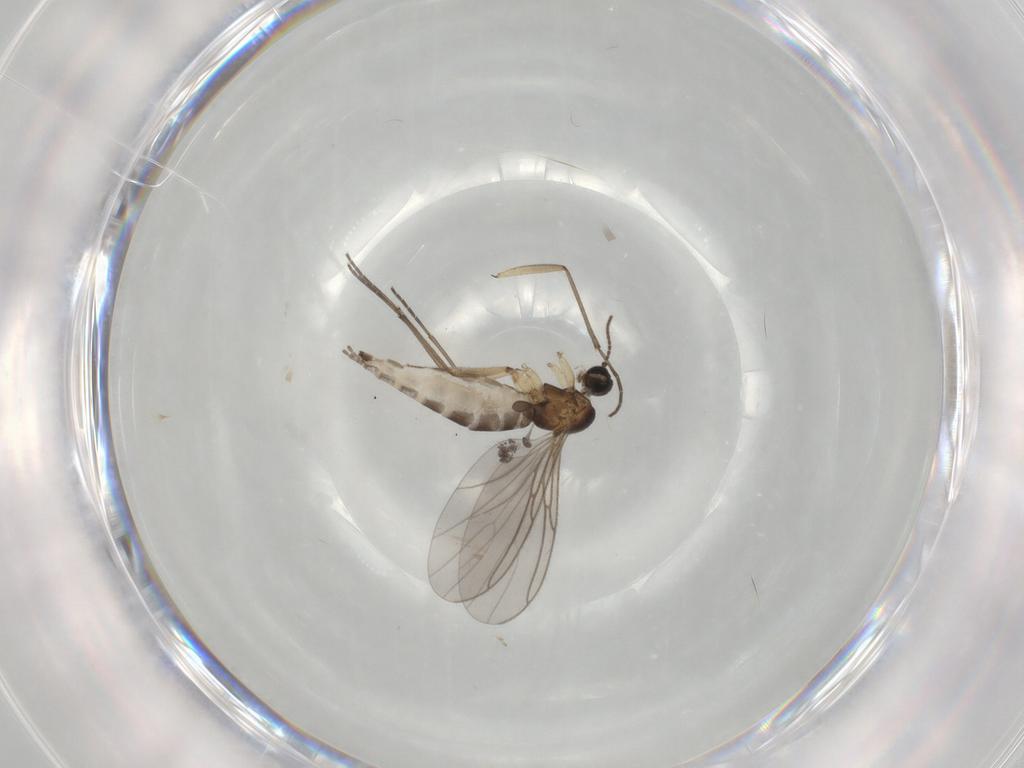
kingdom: Animalia
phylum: Arthropoda
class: Insecta
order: Diptera
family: Sciaridae
